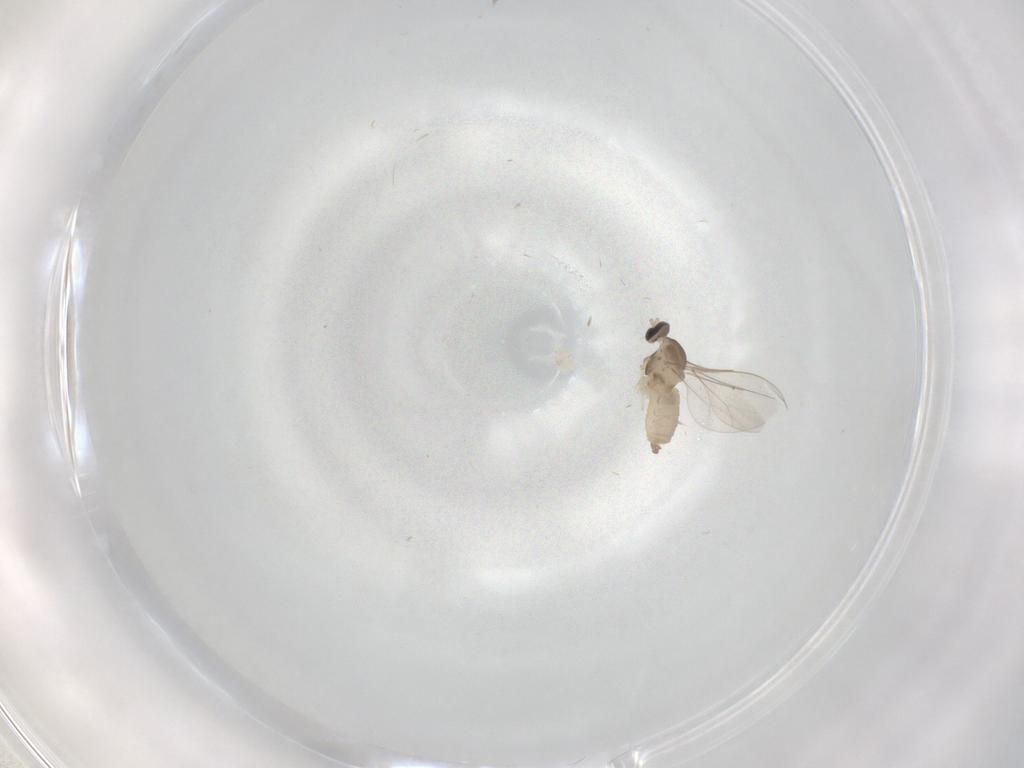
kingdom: Animalia
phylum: Arthropoda
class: Insecta
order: Diptera
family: Cecidomyiidae
